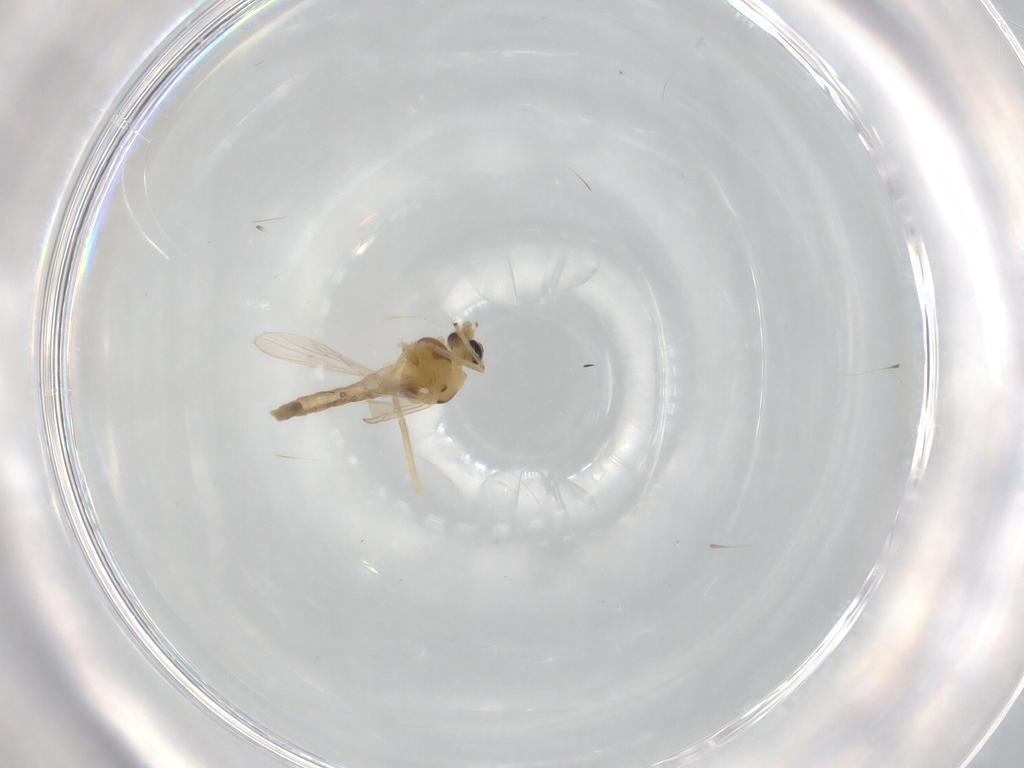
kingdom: Animalia
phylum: Arthropoda
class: Insecta
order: Diptera
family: Chironomidae
